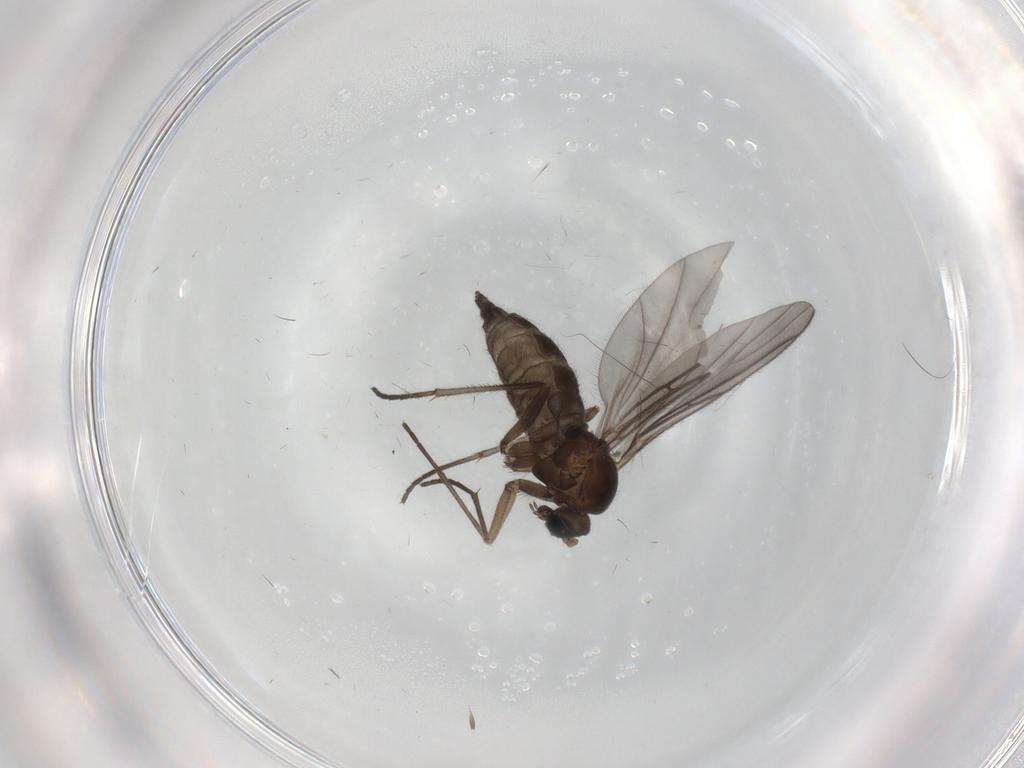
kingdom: Animalia
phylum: Arthropoda
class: Insecta
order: Diptera
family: Sciaridae
